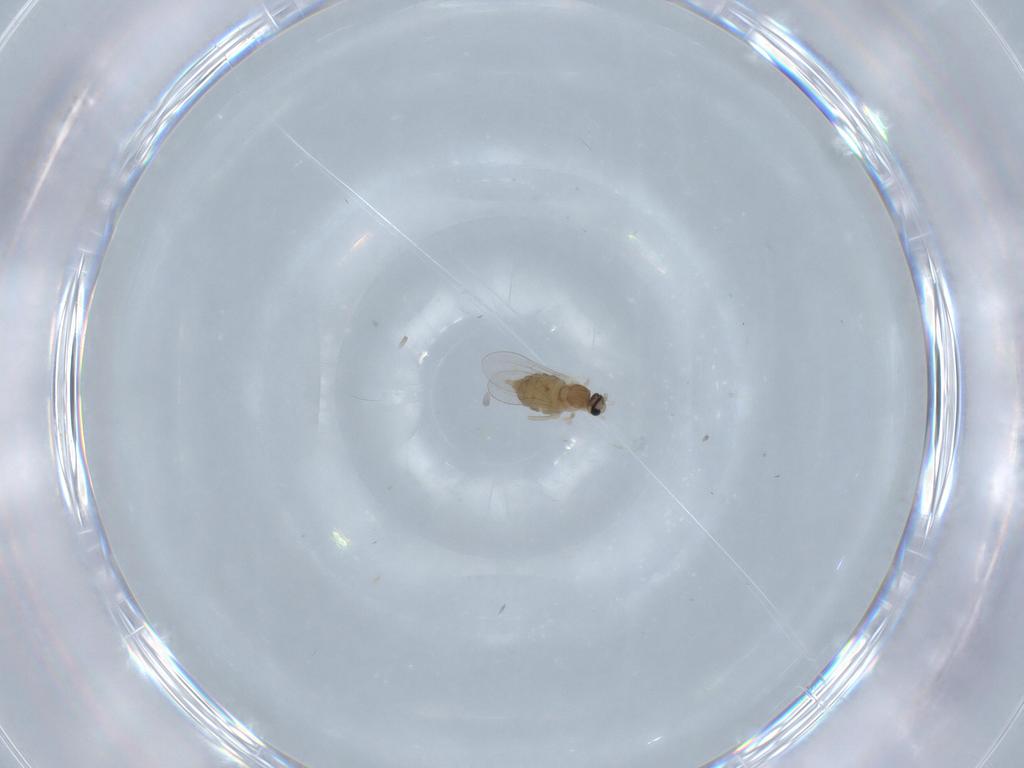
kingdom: Animalia
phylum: Arthropoda
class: Insecta
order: Diptera
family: Cecidomyiidae
